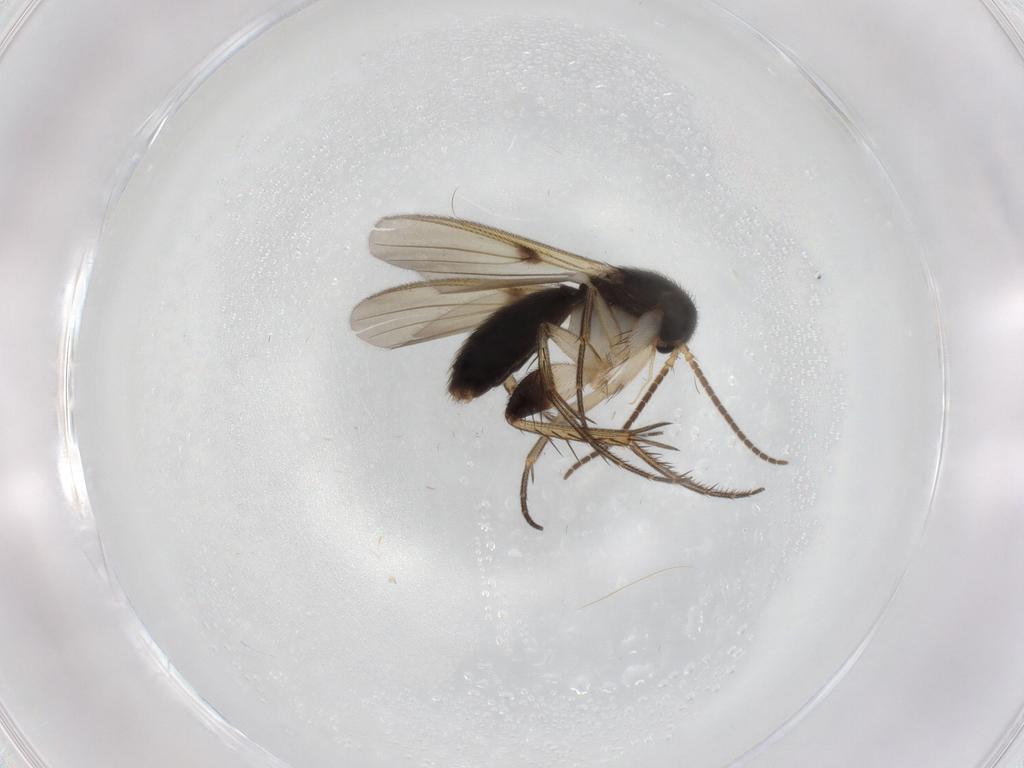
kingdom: Animalia
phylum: Arthropoda
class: Insecta
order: Diptera
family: Mycetophilidae
